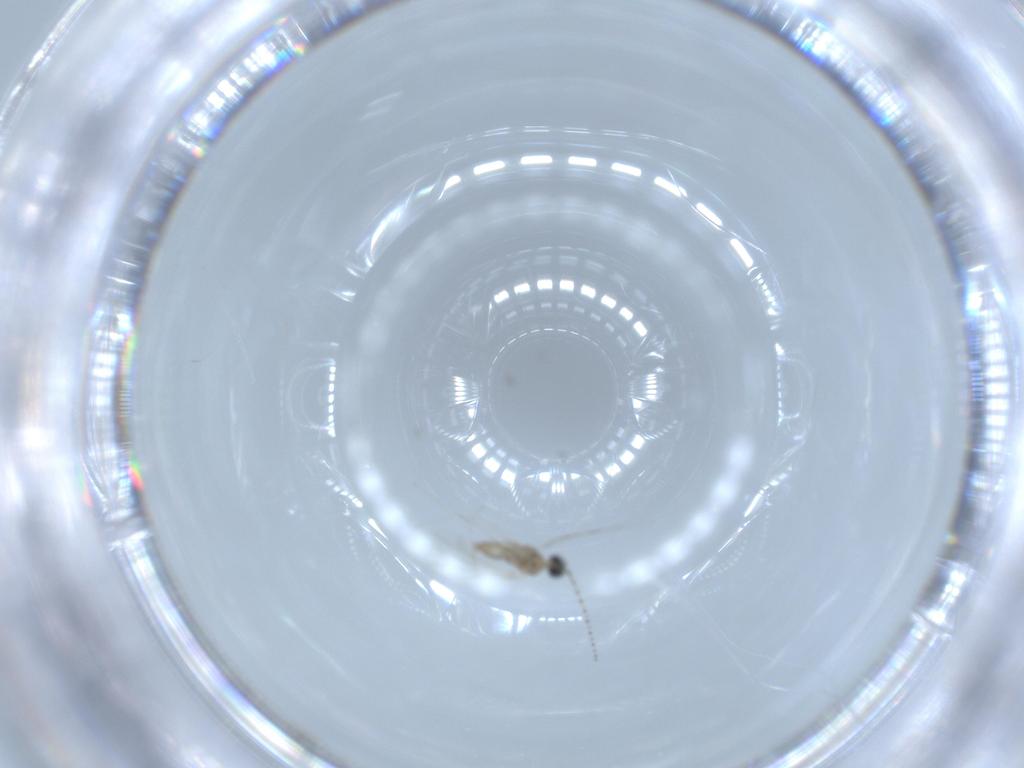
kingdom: Animalia
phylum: Arthropoda
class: Insecta
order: Diptera
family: Cecidomyiidae
